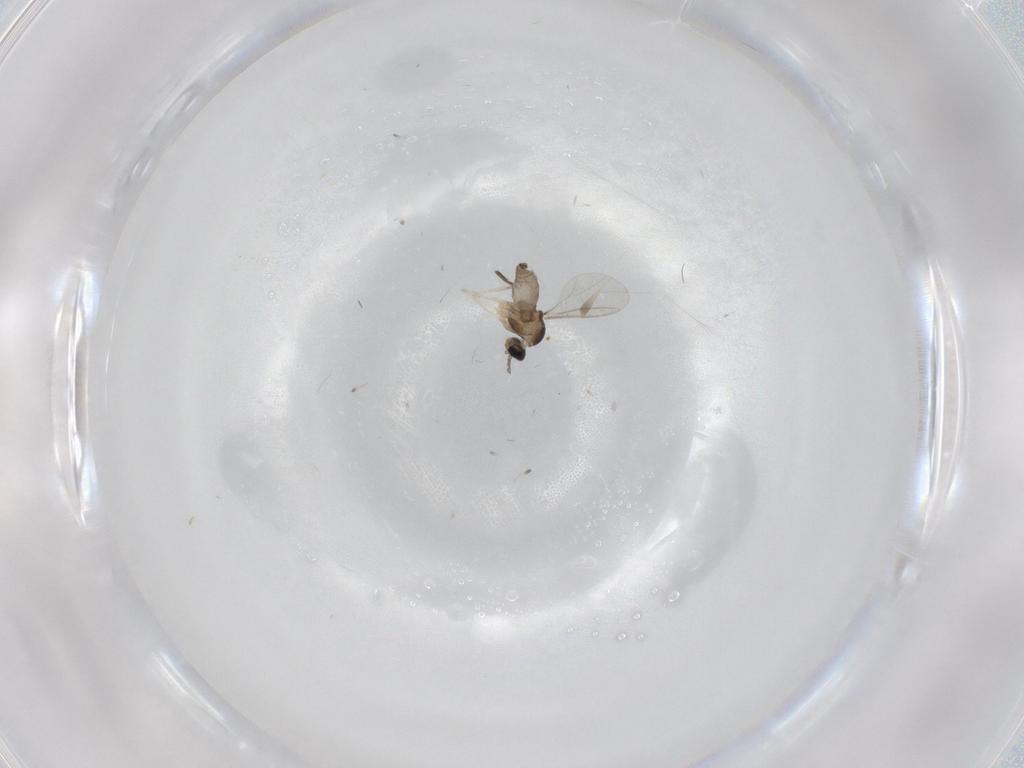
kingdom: Animalia
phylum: Arthropoda
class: Insecta
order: Diptera
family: Cecidomyiidae
